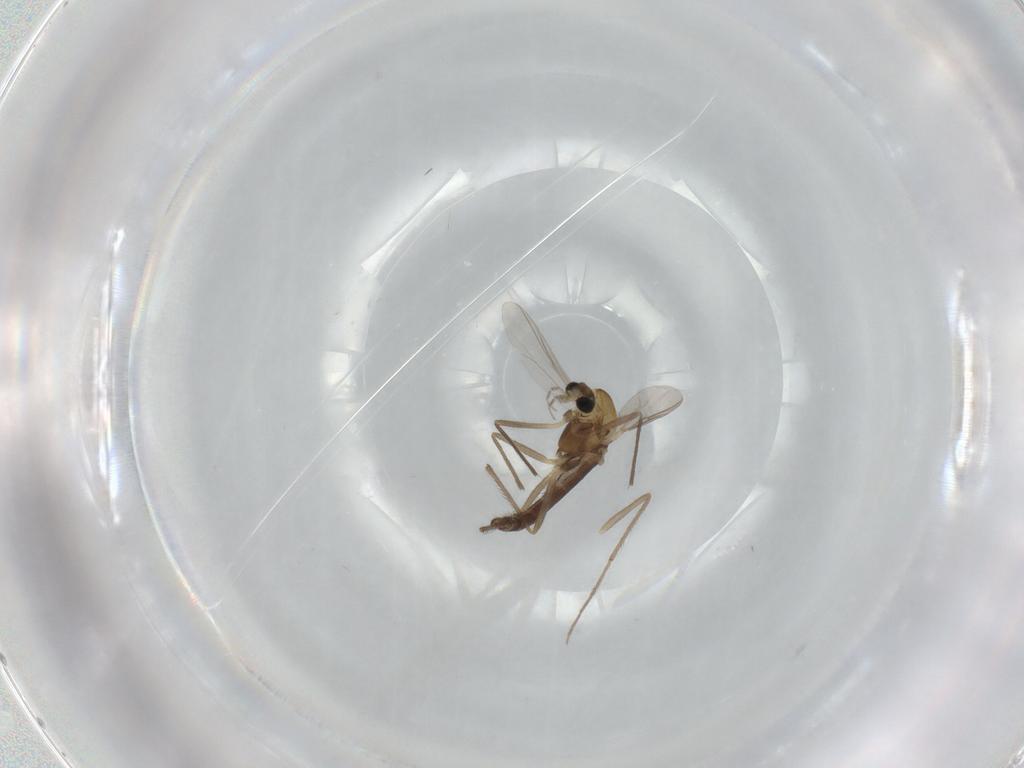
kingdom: Animalia
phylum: Arthropoda
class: Insecta
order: Diptera
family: Chironomidae
